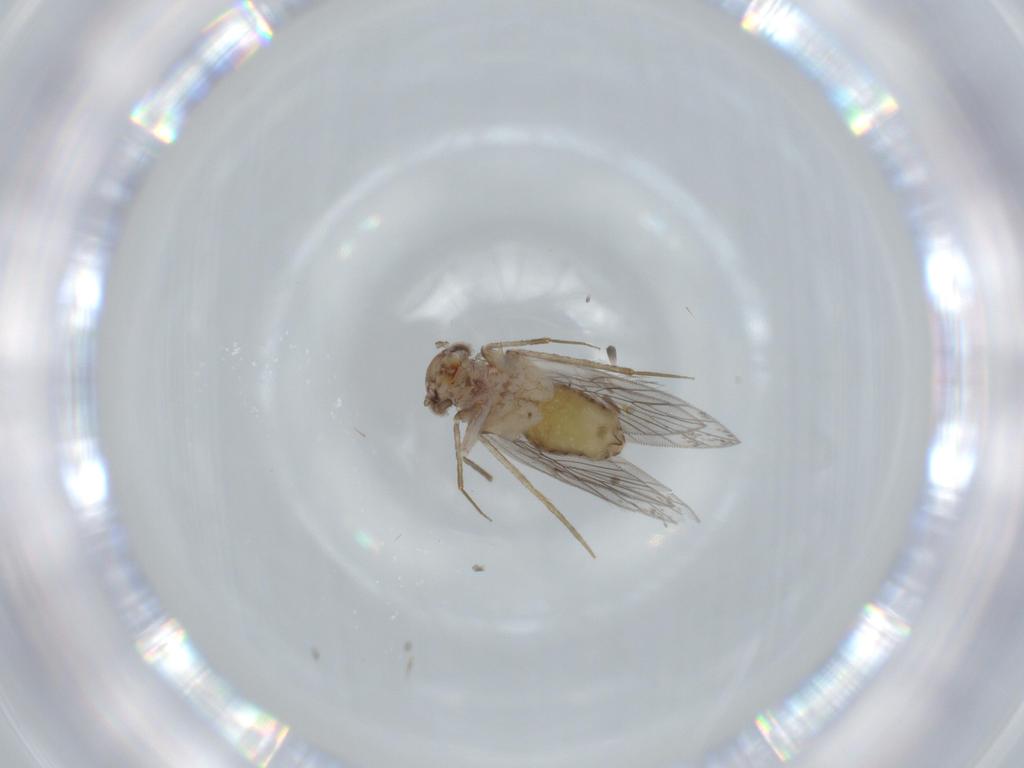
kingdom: Animalia
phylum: Arthropoda
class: Insecta
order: Psocodea
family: Lepidopsocidae
